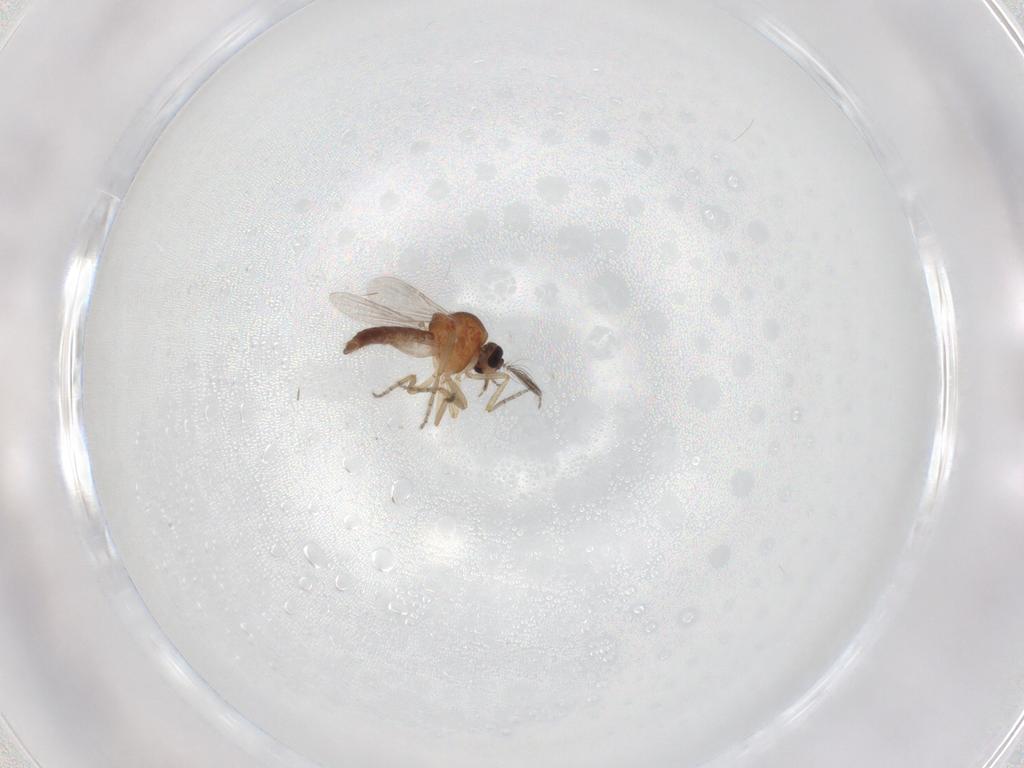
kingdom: Animalia
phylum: Arthropoda
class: Insecta
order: Diptera
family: Ceratopogonidae
